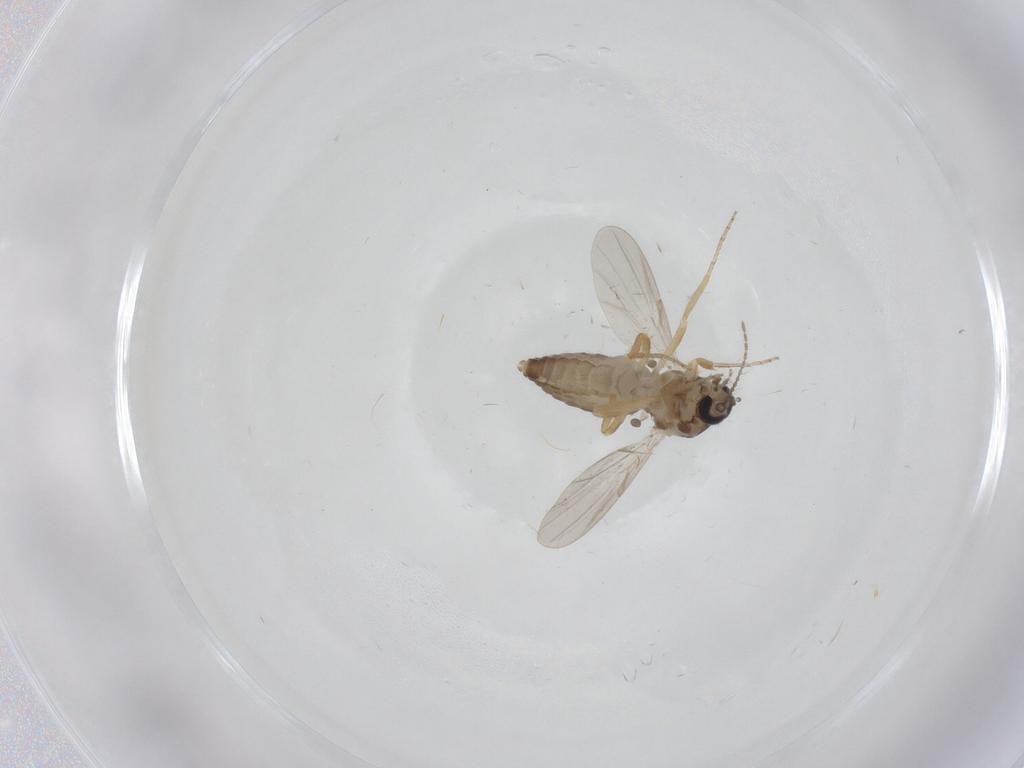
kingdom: Animalia
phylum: Arthropoda
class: Insecta
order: Diptera
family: Ceratopogonidae
